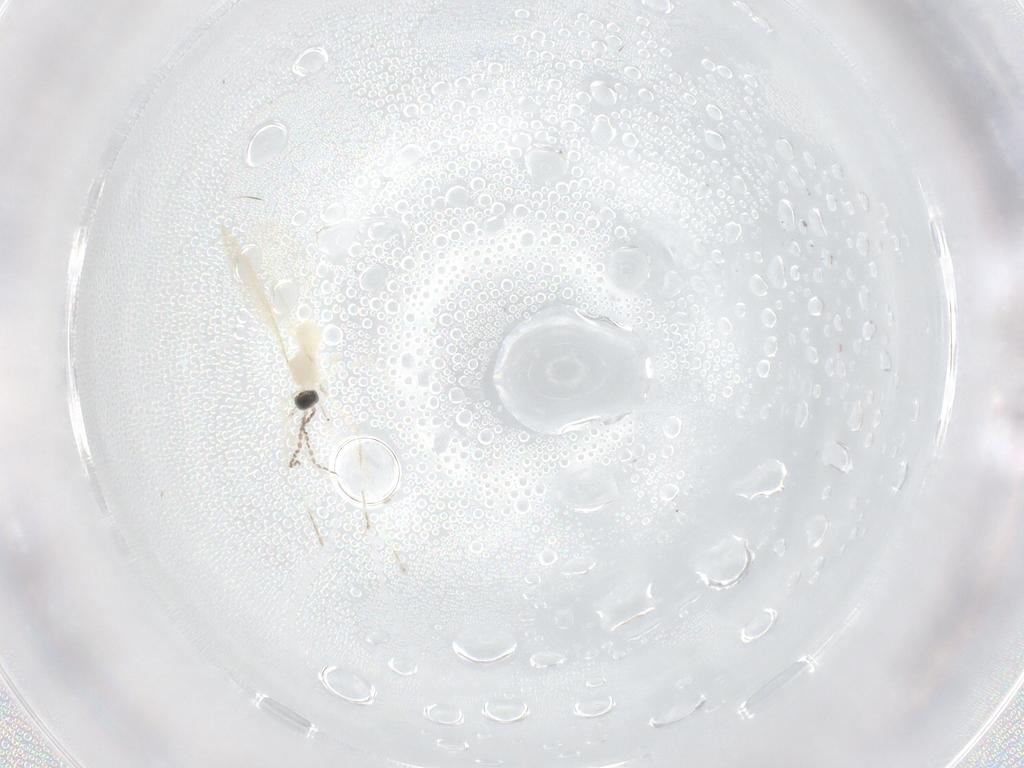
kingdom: Animalia
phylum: Arthropoda
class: Insecta
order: Diptera
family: Cecidomyiidae
